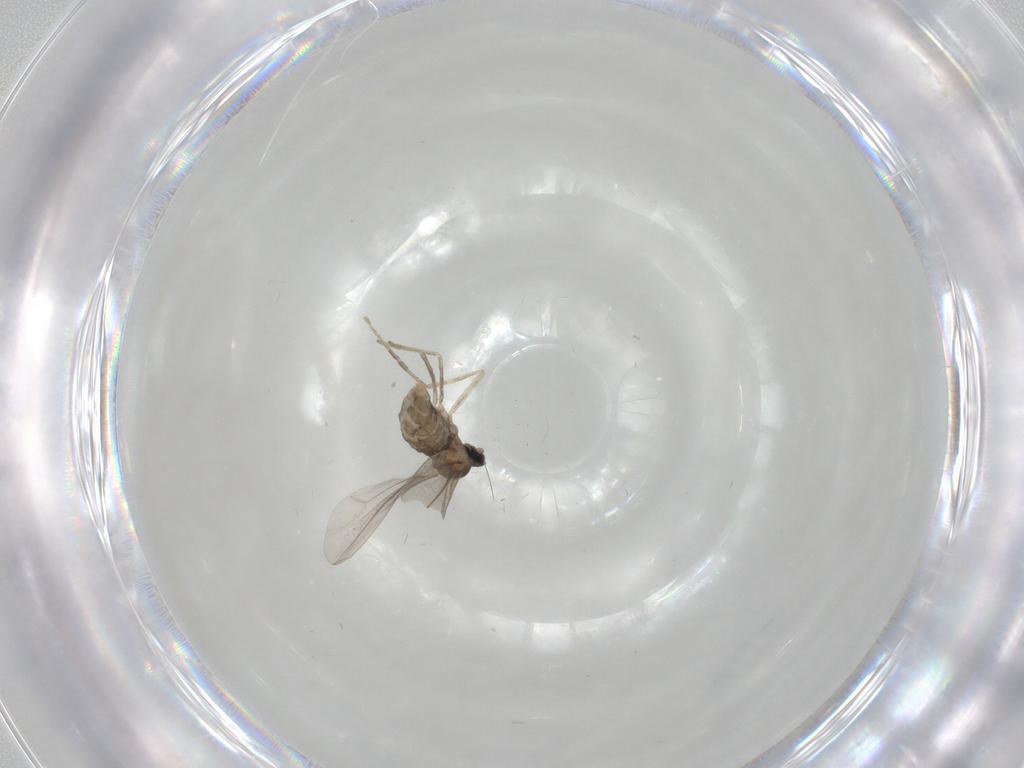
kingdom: Animalia
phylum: Arthropoda
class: Insecta
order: Diptera
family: Cecidomyiidae
